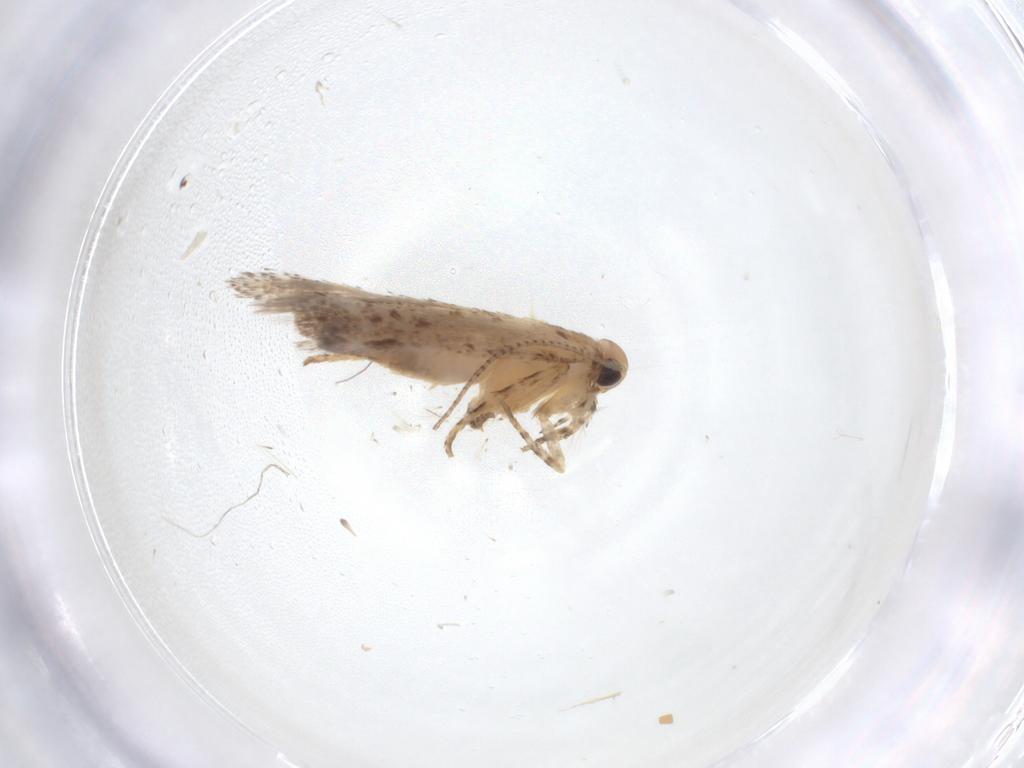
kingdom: Animalia
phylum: Arthropoda
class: Insecta
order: Lepidoptera
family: Gelechiidae
